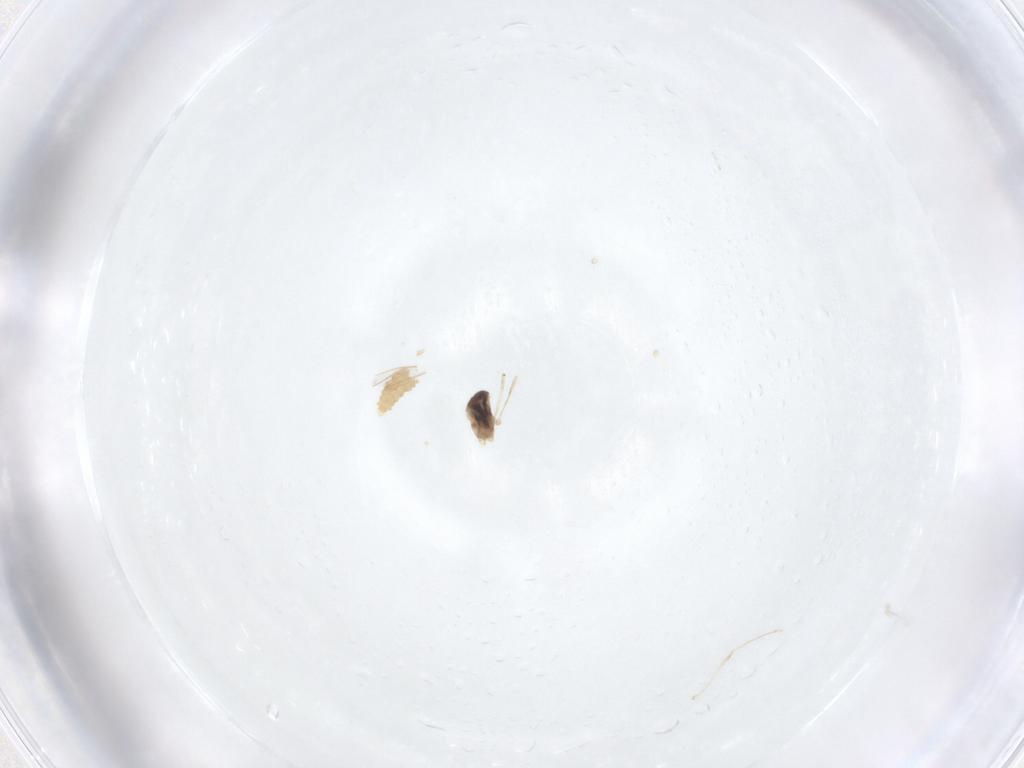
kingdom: Animalia
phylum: Arthropoda
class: Insecta
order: Diptera
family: Cecidomyiidae
